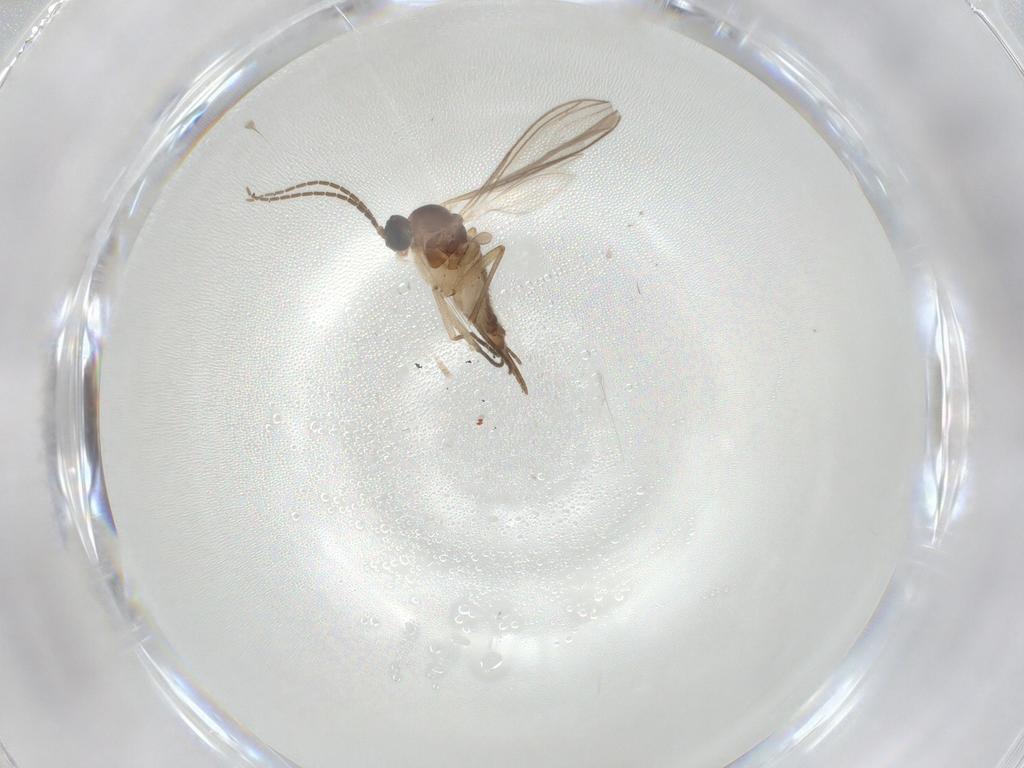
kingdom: Animalia
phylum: Arthropoda
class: Insecta
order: Diptera
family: Sciaridae
